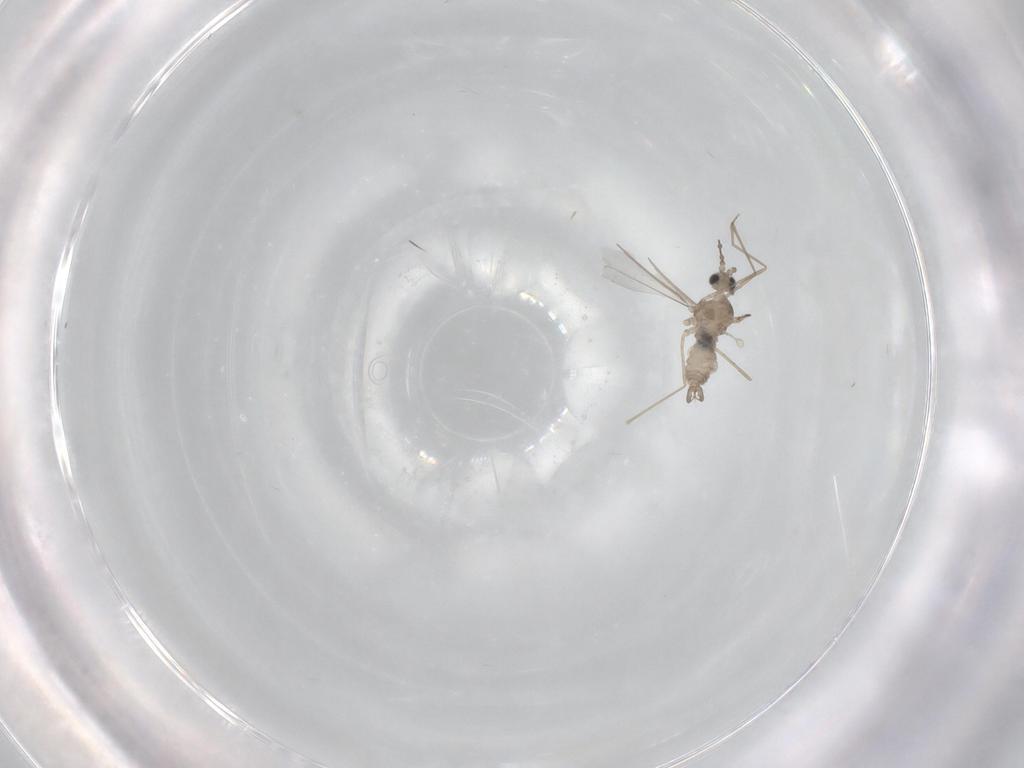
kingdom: Animalia
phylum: Arthropoda
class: Insecta
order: Diptera
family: Cecidomyiidae
